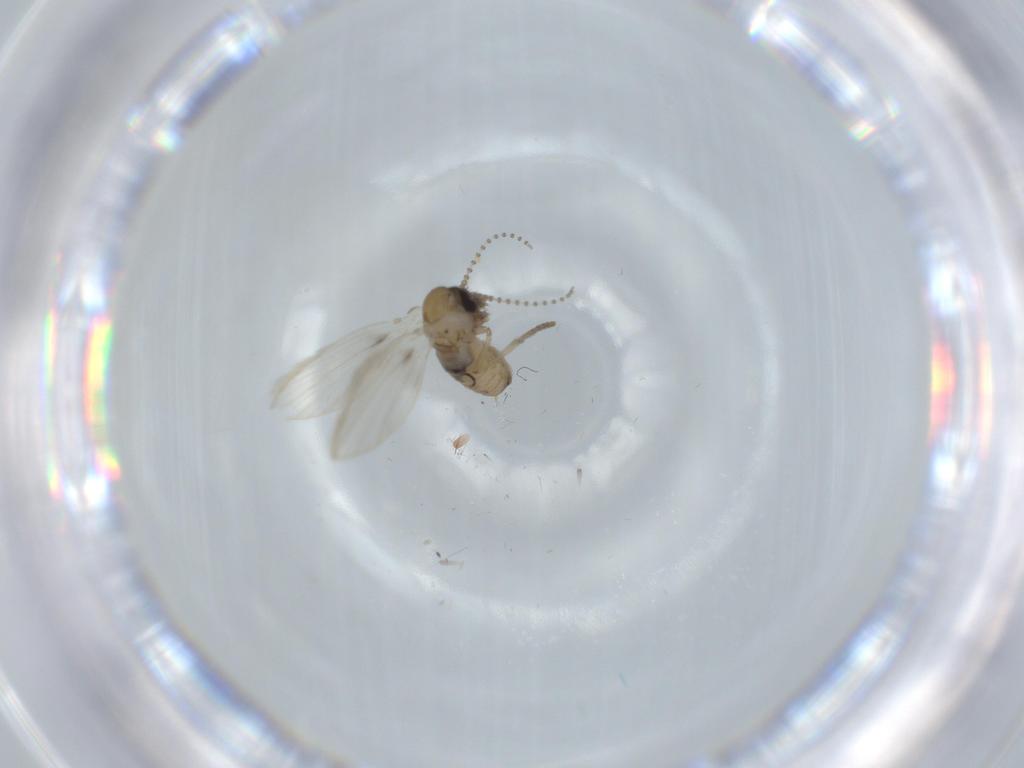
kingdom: Animalia
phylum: Arthropoda
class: Insecta
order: Diptera
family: Psychodidae
